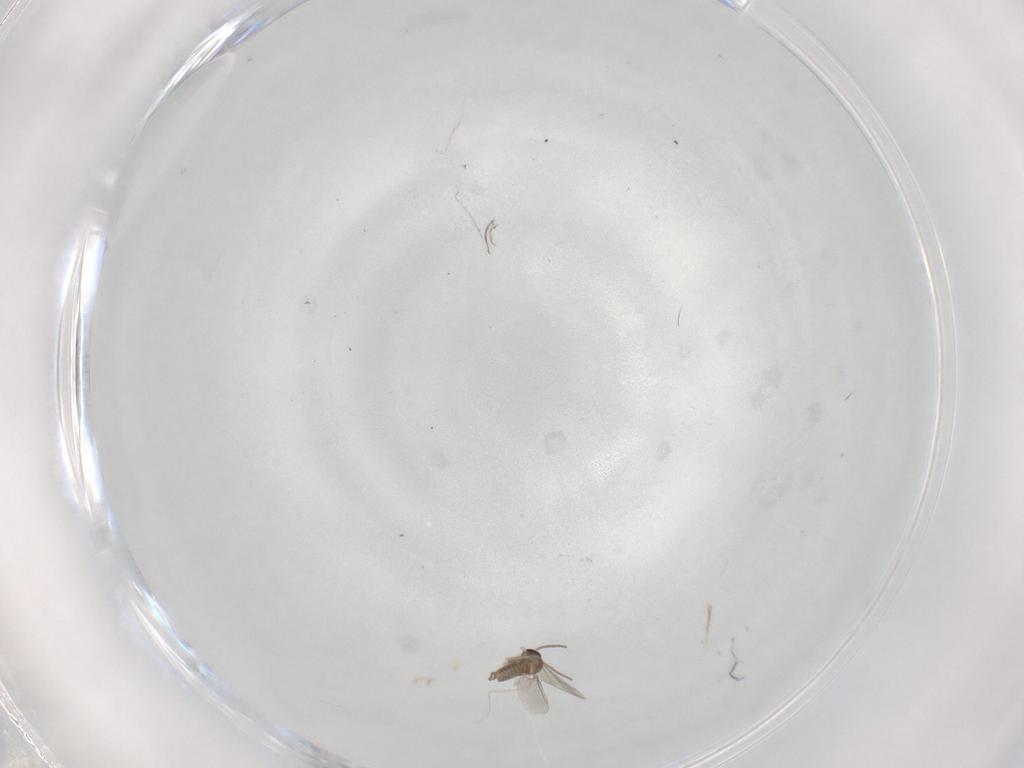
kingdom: Animalia
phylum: Arthropoda
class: Insecta
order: Diptera
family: Cecidomyiidae
